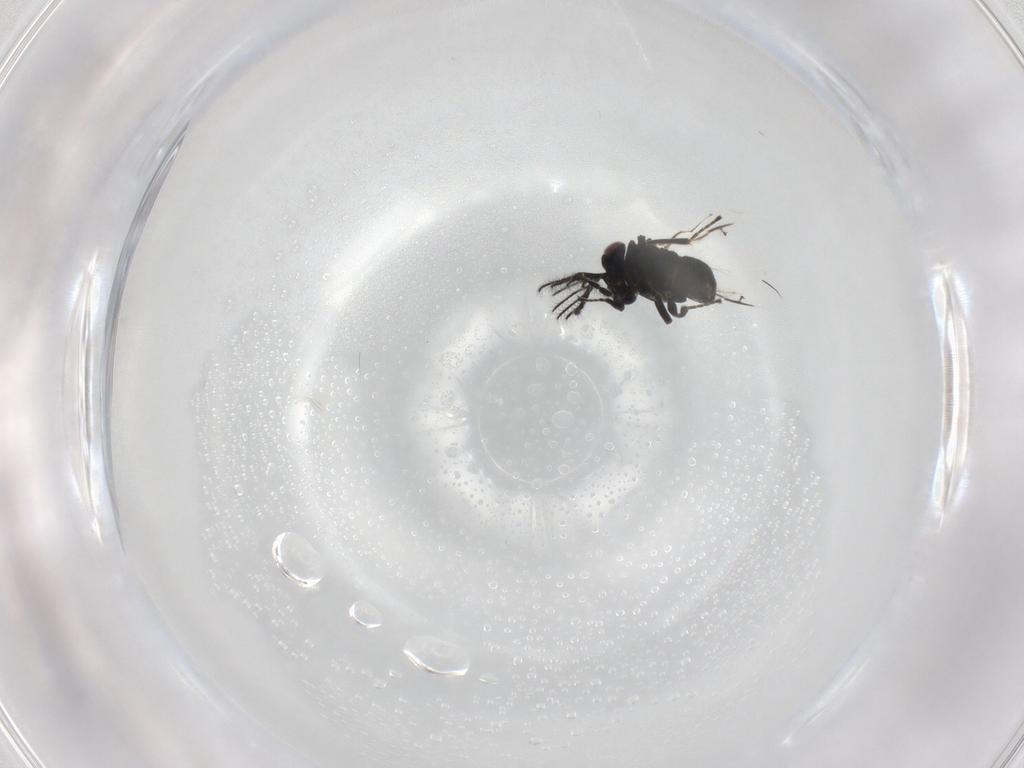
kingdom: Animalia
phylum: Arthropoda
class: Insecta
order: Hymenoptera
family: Encyrtidae
